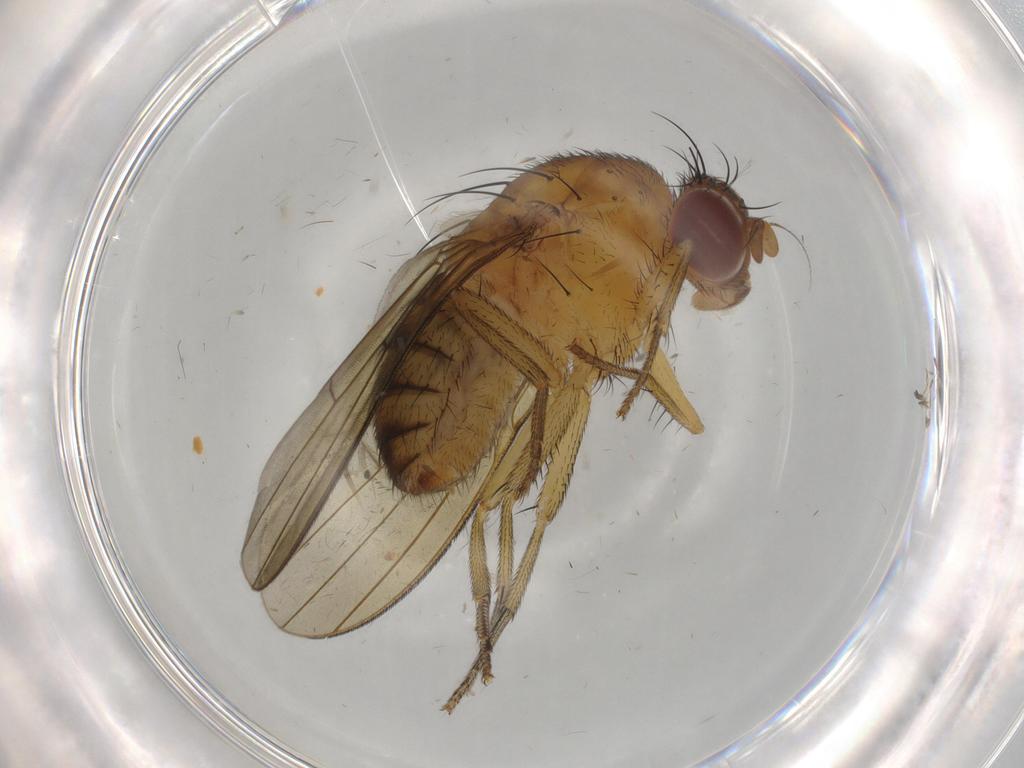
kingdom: Animalia
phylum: Arthropoda
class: Insecta
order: Diptera
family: Cecidomyiidae
